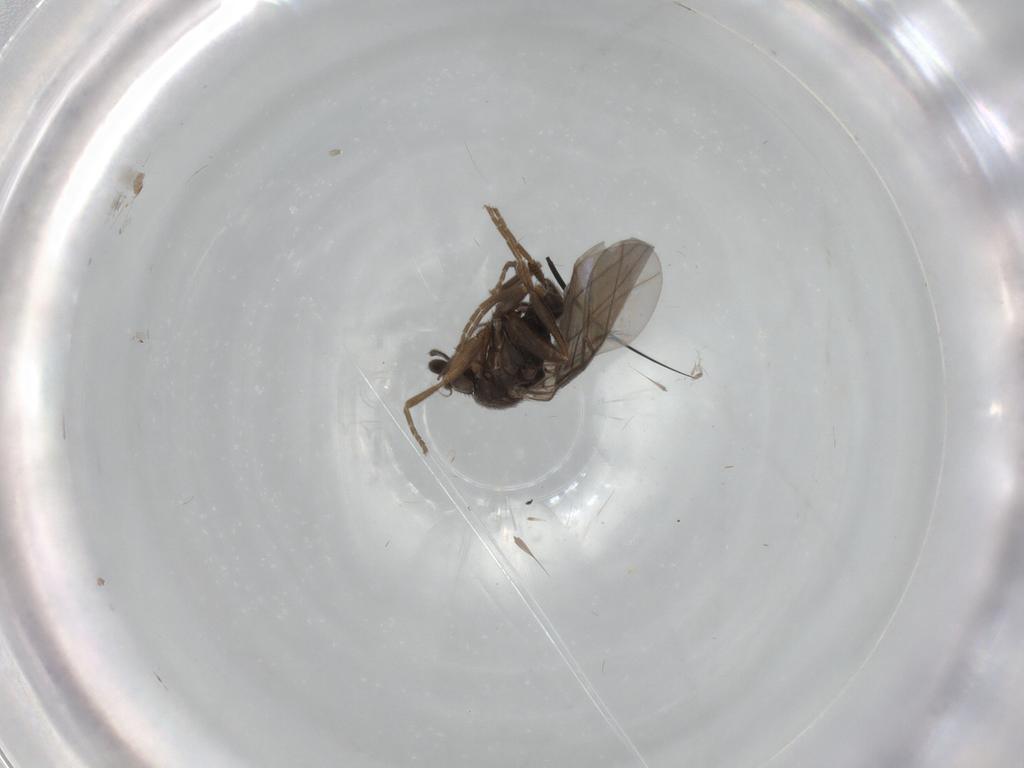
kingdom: Animalia
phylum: Arthropoda
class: Insecta
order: Diptera
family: Phoridae
